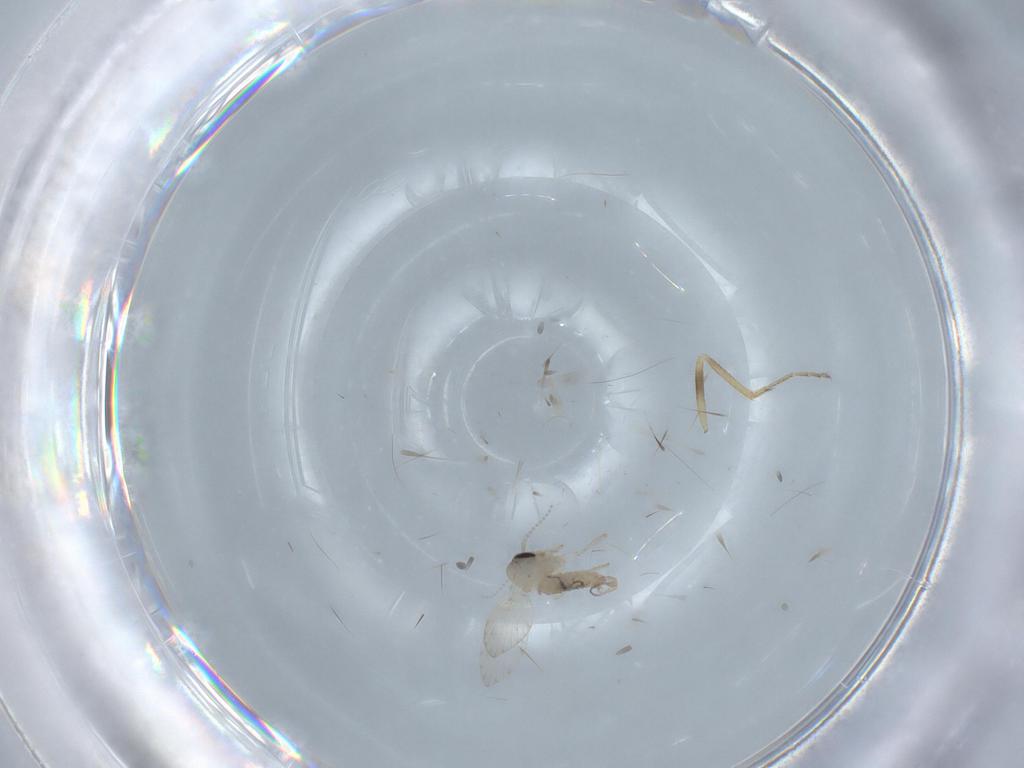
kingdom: Animalia
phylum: Arthropoda
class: Insecta
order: Diptera
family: Psychodidae
